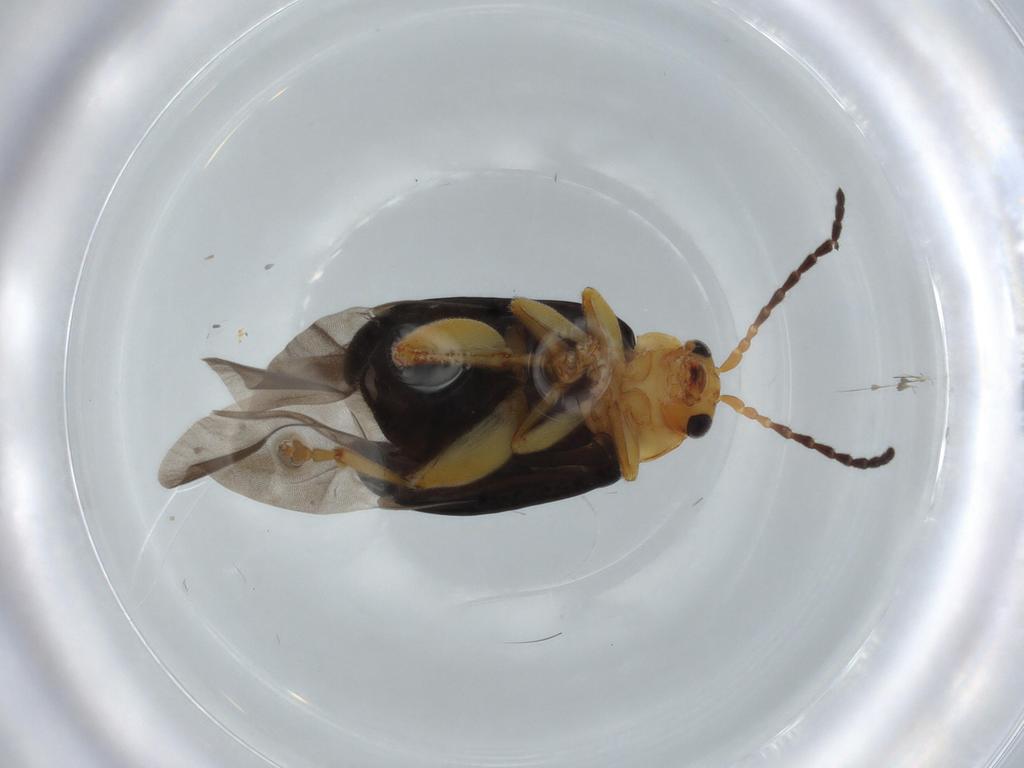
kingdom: Animalia
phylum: Arthropoda
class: Insecta
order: Coleoptera
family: Chrysomelidae
